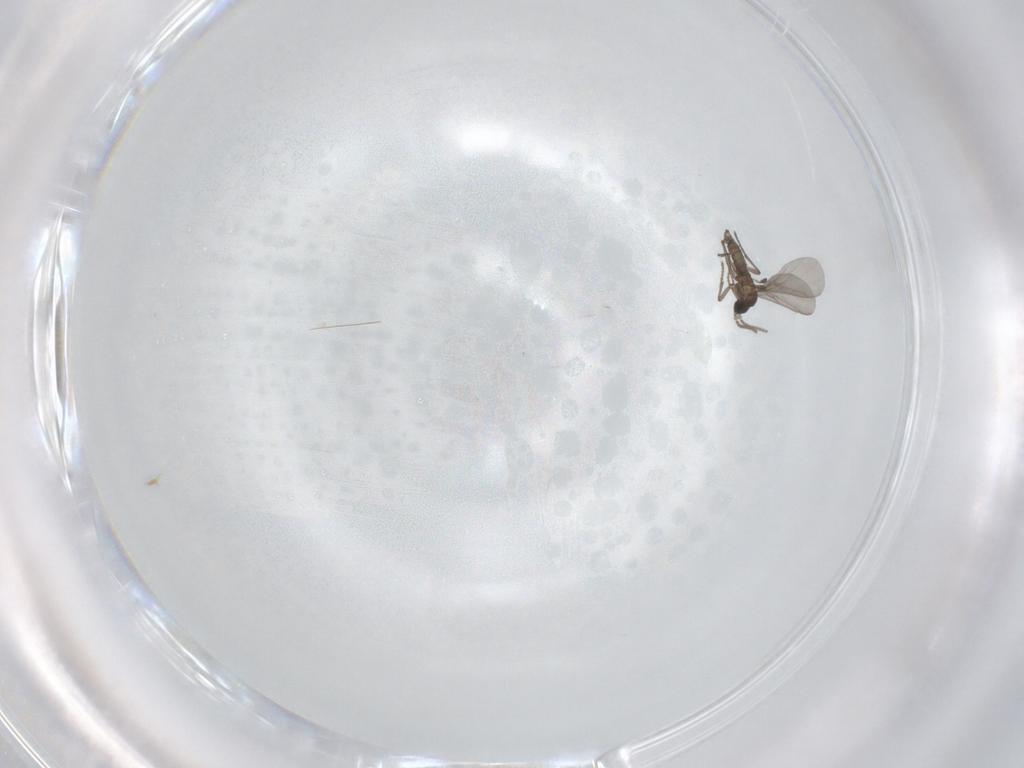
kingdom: Animalia
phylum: Arthropoda
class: Insecta
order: Diptera
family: Sciaridae
